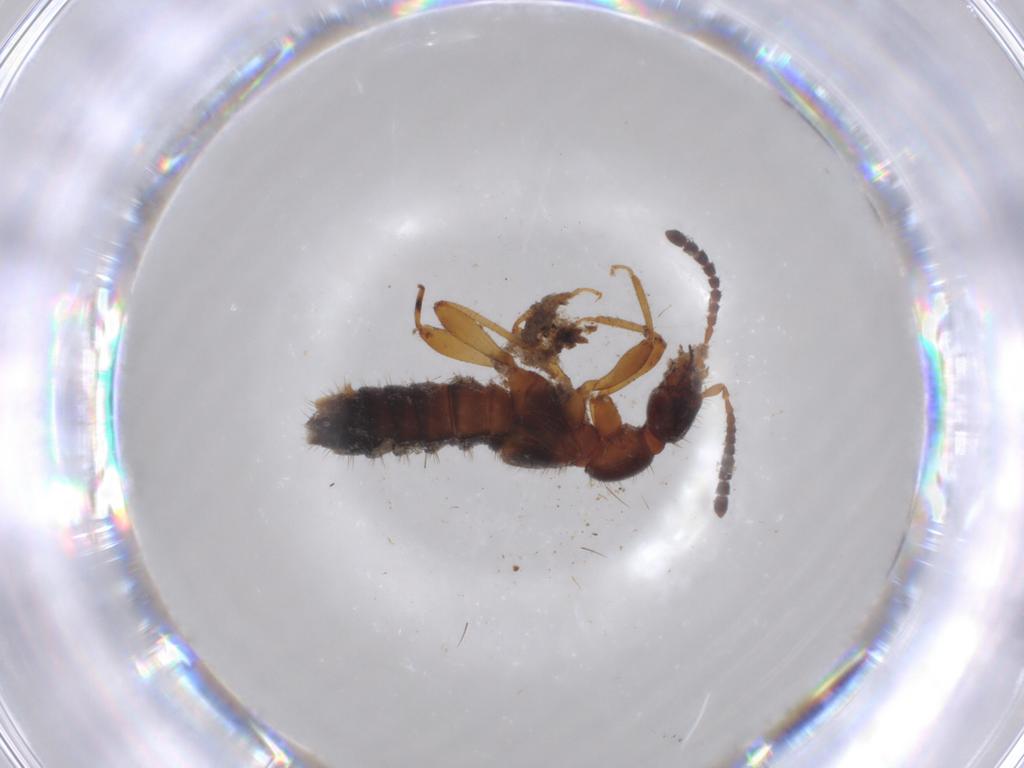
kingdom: Animalia
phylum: Arthropoda
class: Insecta
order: Coleoptera
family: Staphylinidae
